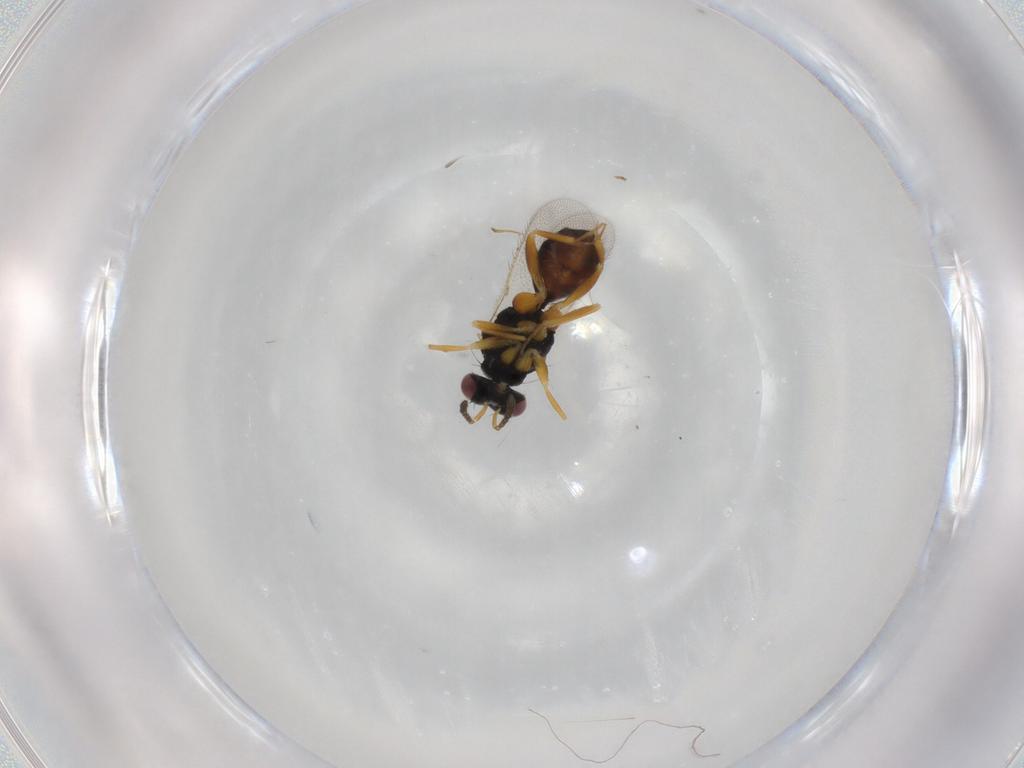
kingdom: Animalia
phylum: Arthropoda
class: Insecta
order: Hymenoptera
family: Eulophidae
